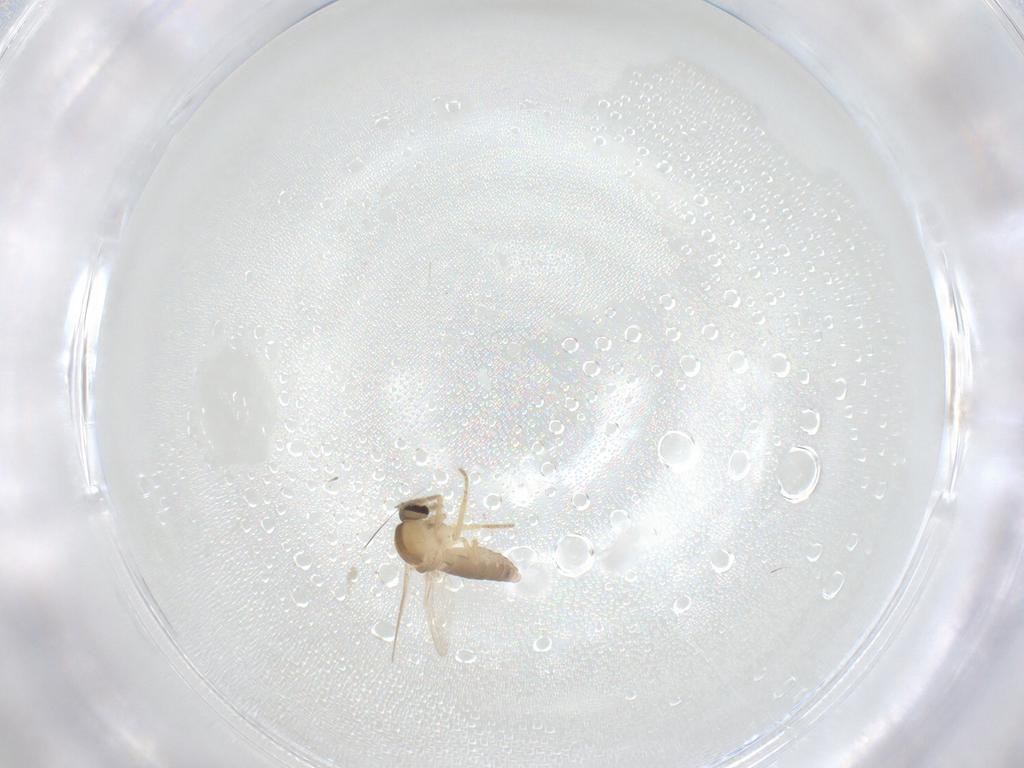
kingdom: Animalia
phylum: Arthropoda
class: Insecta
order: Diptera
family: Ceratopogonidae
